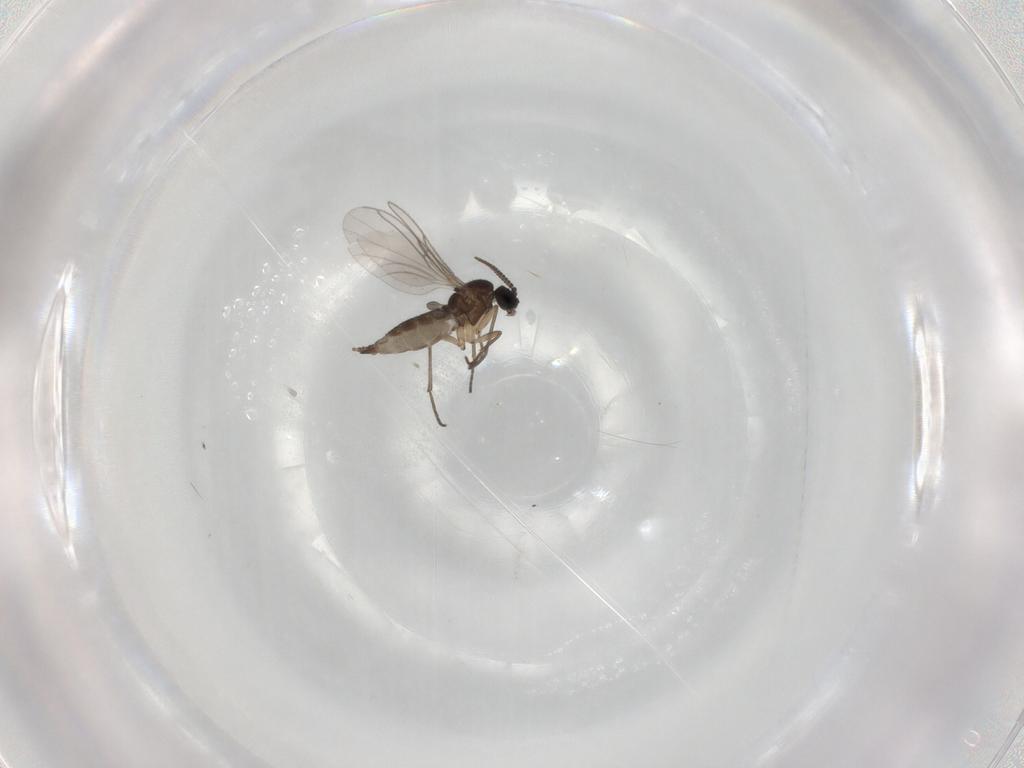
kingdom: Animalia
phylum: Arthropoda
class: Insecta
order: Diptera
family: Sciaridae
